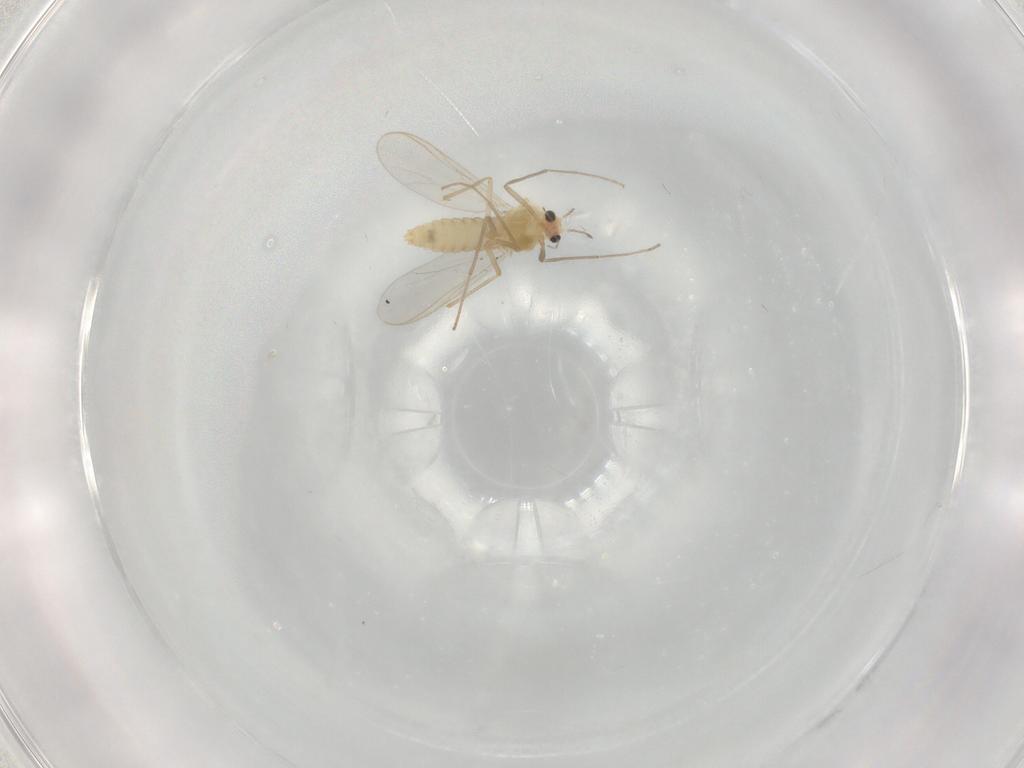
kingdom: Animalia
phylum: Arthropoda
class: Insecta
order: Diptera
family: Chironomidae
